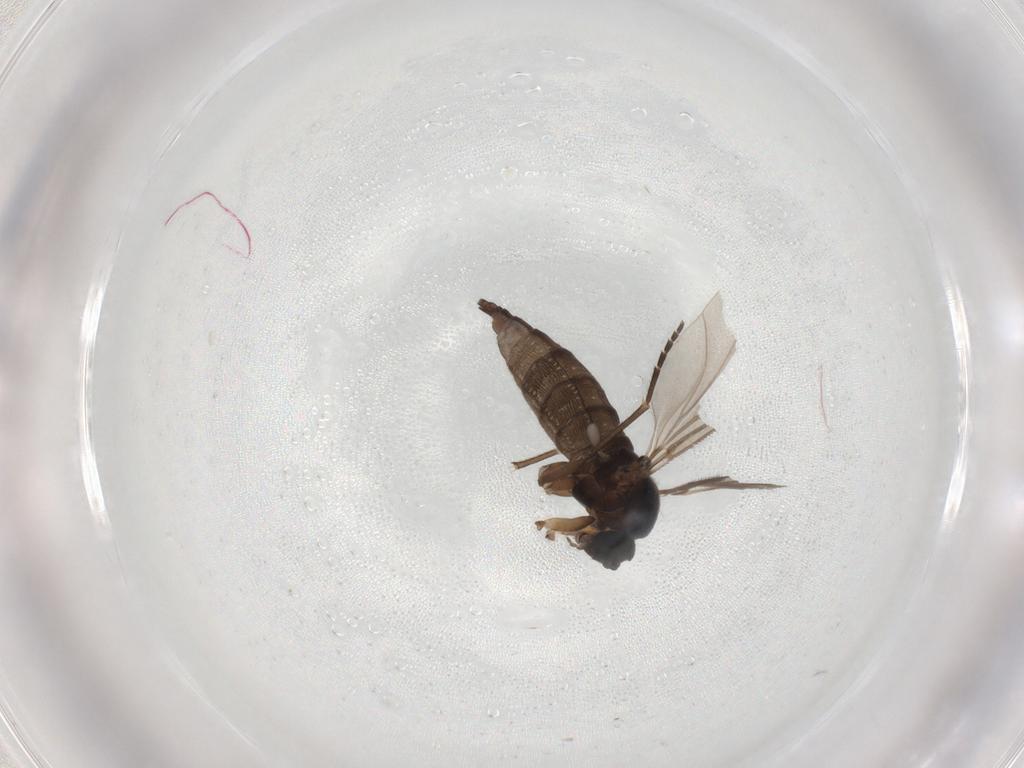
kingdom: Animalia
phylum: Arthropoda
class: Insecta
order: Diptera
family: Sciaridae
